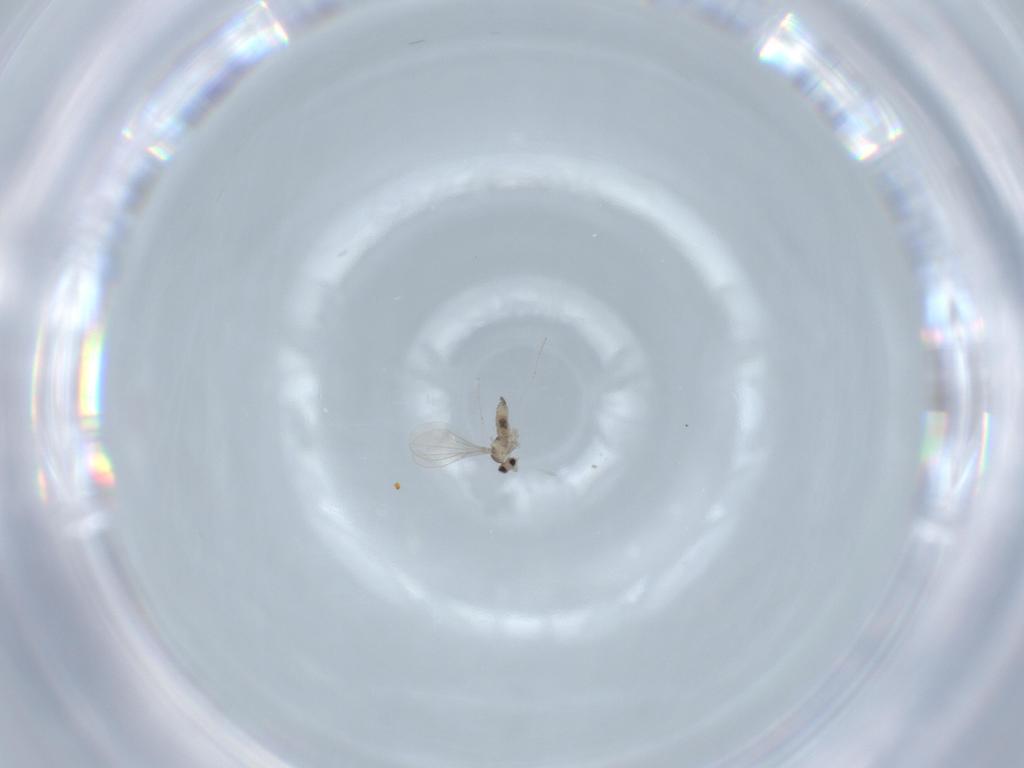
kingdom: Animalia
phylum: Arthropoda
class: Insecta
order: Diptera
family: Cecidomyiidae
